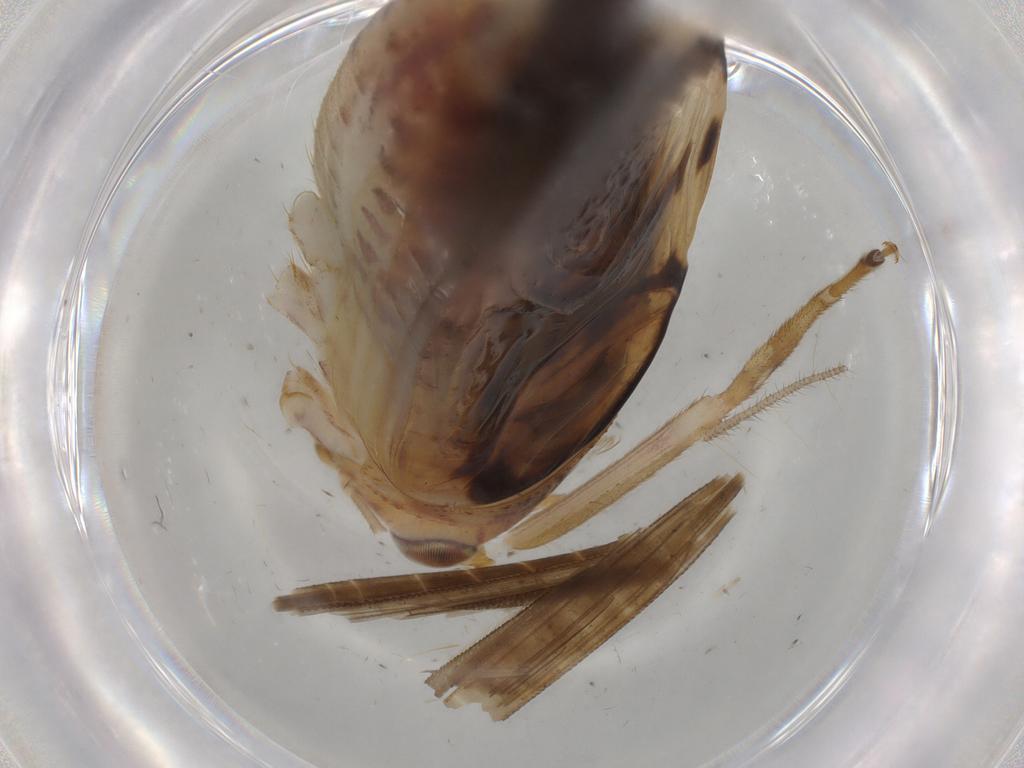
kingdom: Animalia
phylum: Arthropoda
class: Insecta
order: Orthoptera
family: Trigonidiidae
